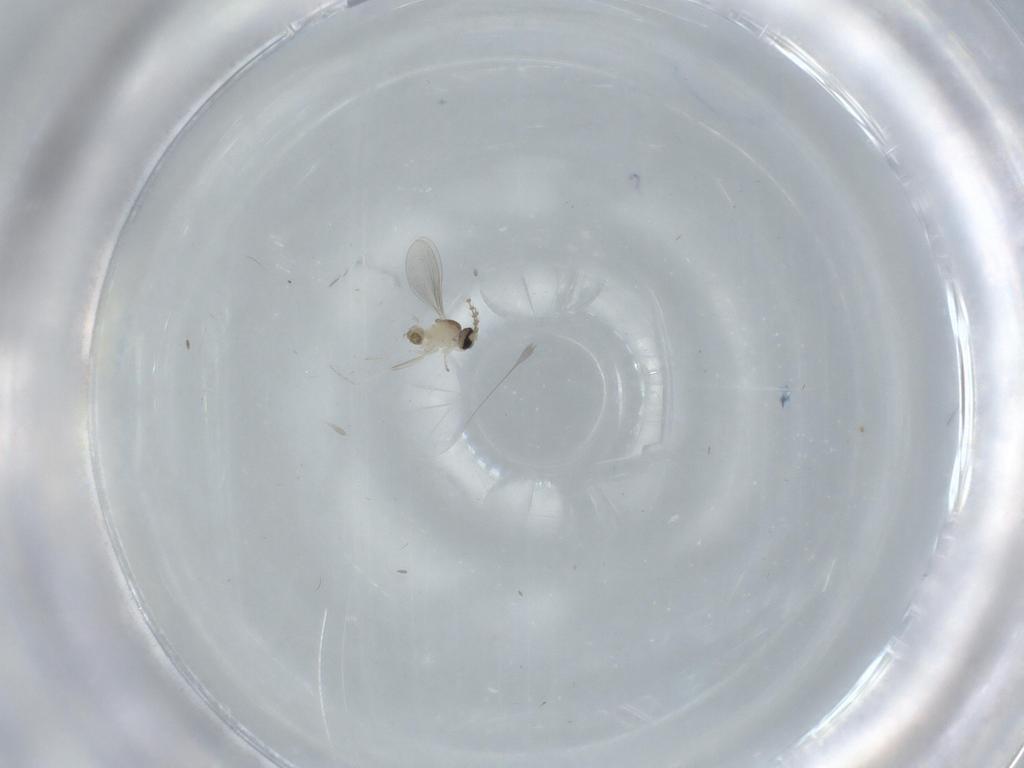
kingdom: Animalia
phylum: Arthropoda
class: Insecta
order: Diptera
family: Cecidomyiidae
